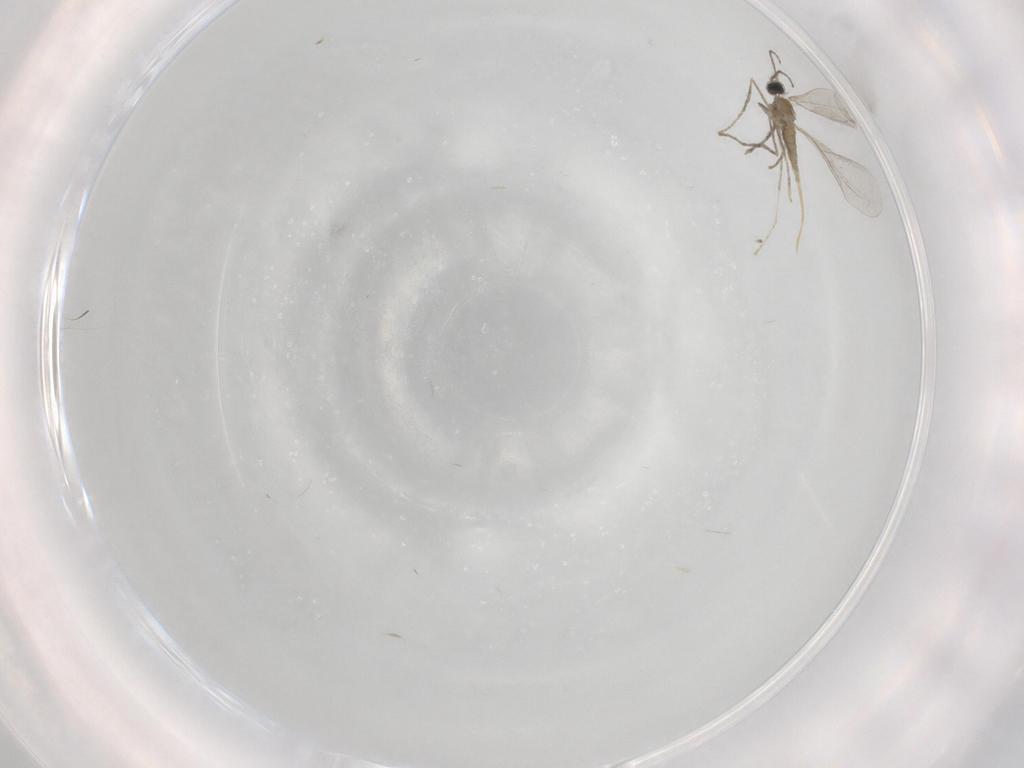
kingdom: Animalia
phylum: Arthropoda
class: Insecta
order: Diptera
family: Cecidomyiidae
